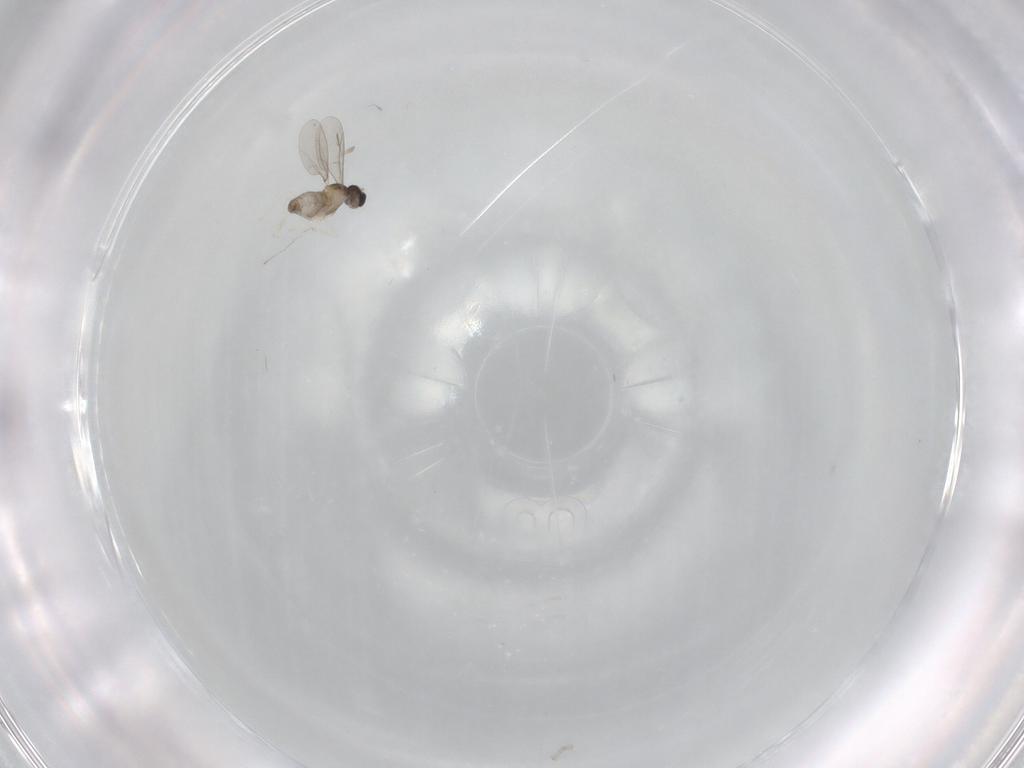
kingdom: Animalia
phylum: Arthropoda
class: Insecta
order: Diptera
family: Cecidomyiidae
